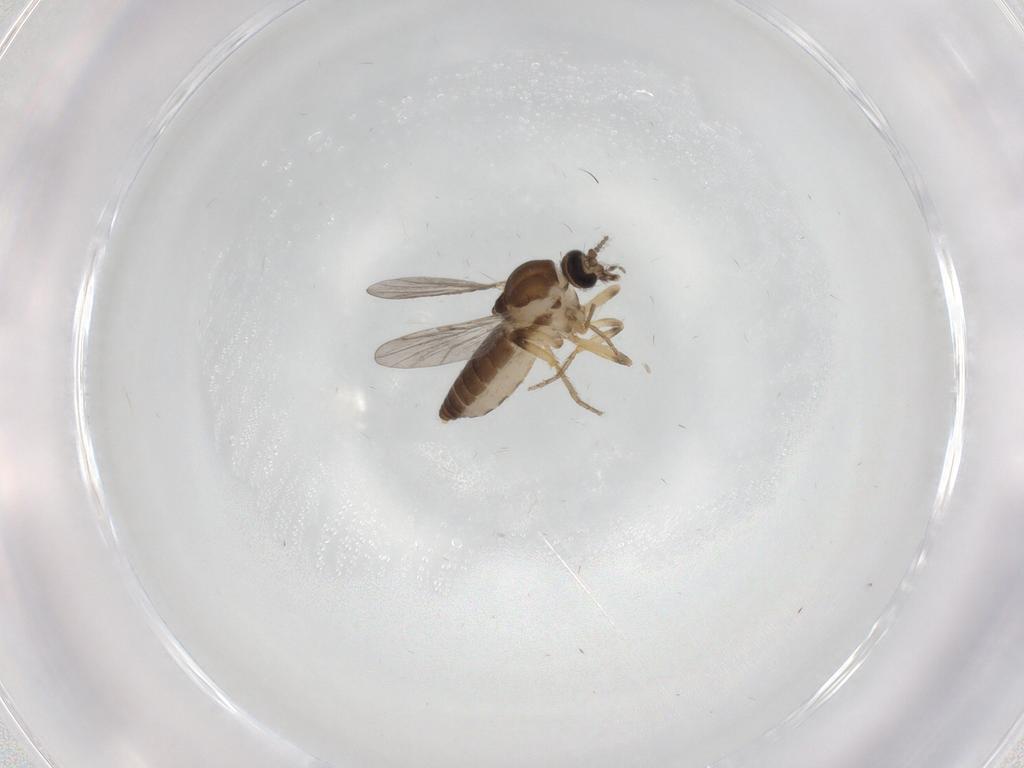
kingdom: Animalia
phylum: Arthropoda
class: Insecta
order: Diptera
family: Ceratopogonidae
